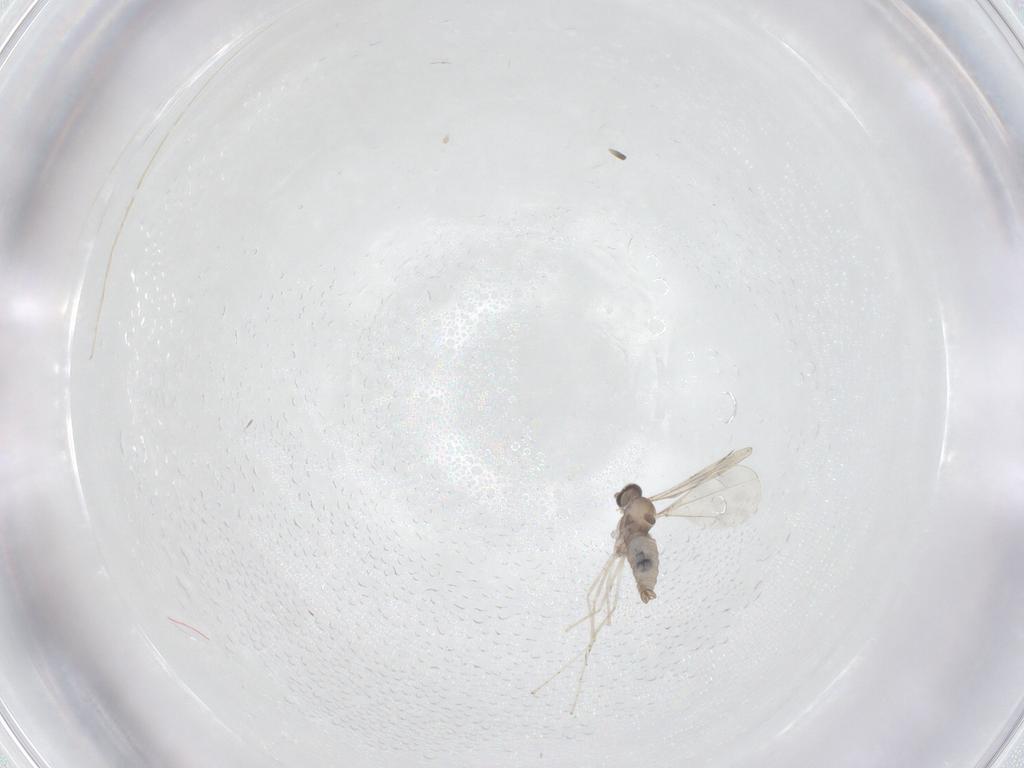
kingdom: Animalia
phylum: Arthropoda
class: Insecta
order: Diptera
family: Cecidomyiidae
